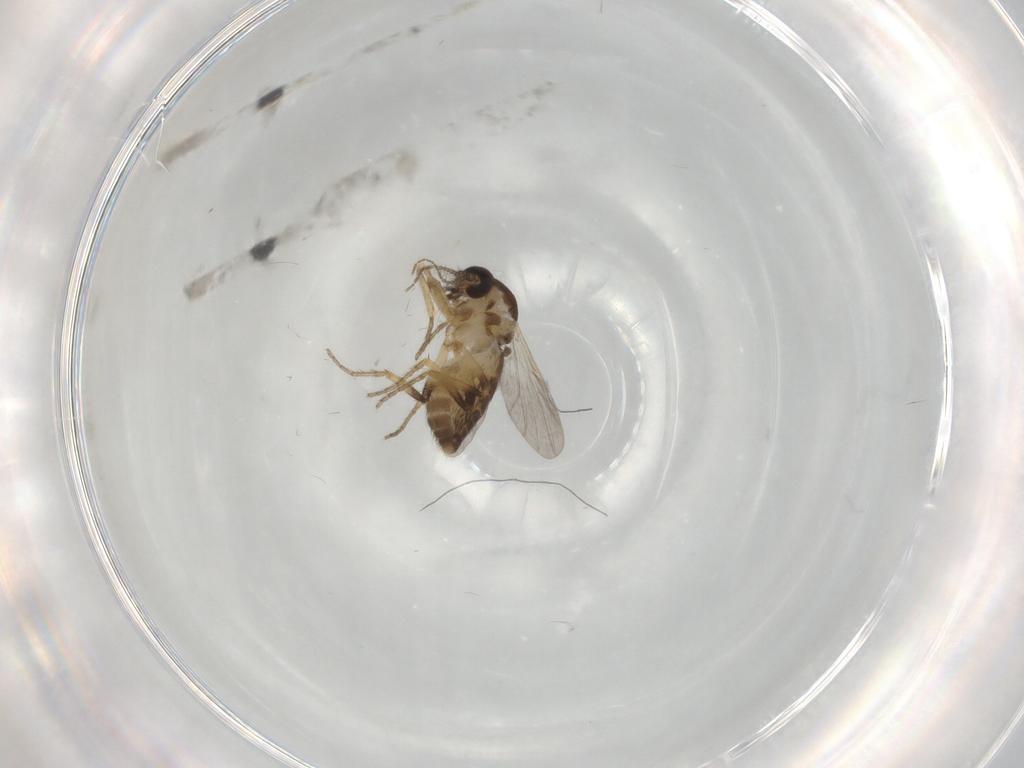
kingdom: Animalia
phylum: Arthropoda
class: Insecta
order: Diptera
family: Ceratopogonidae
